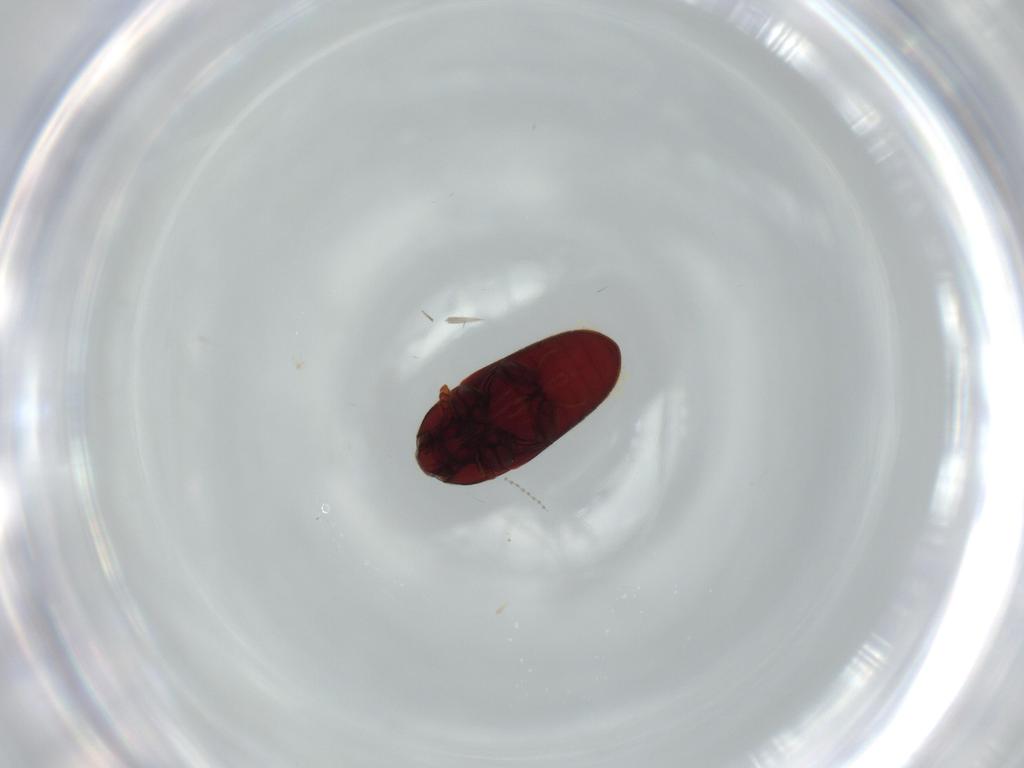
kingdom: Animalia
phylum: Arthropoda
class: Insecta
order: Coleoptera
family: Throscidae
